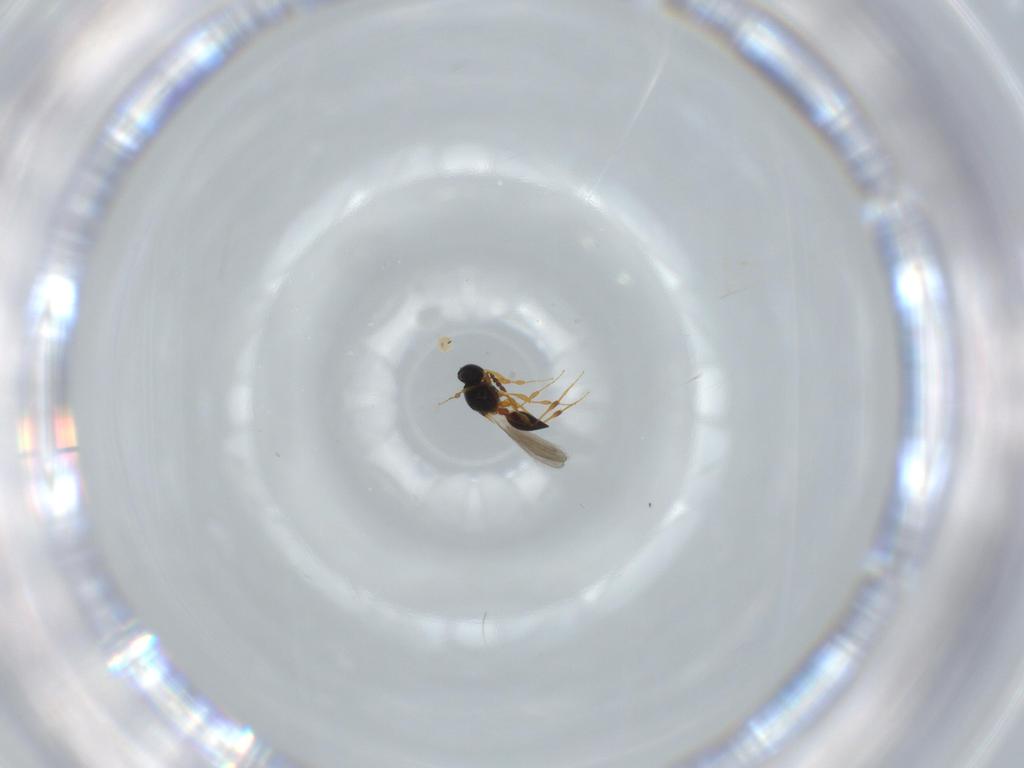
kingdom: Animalia
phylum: Arthropoda
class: Insecta
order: Hymenoptera
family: Platygastridae
